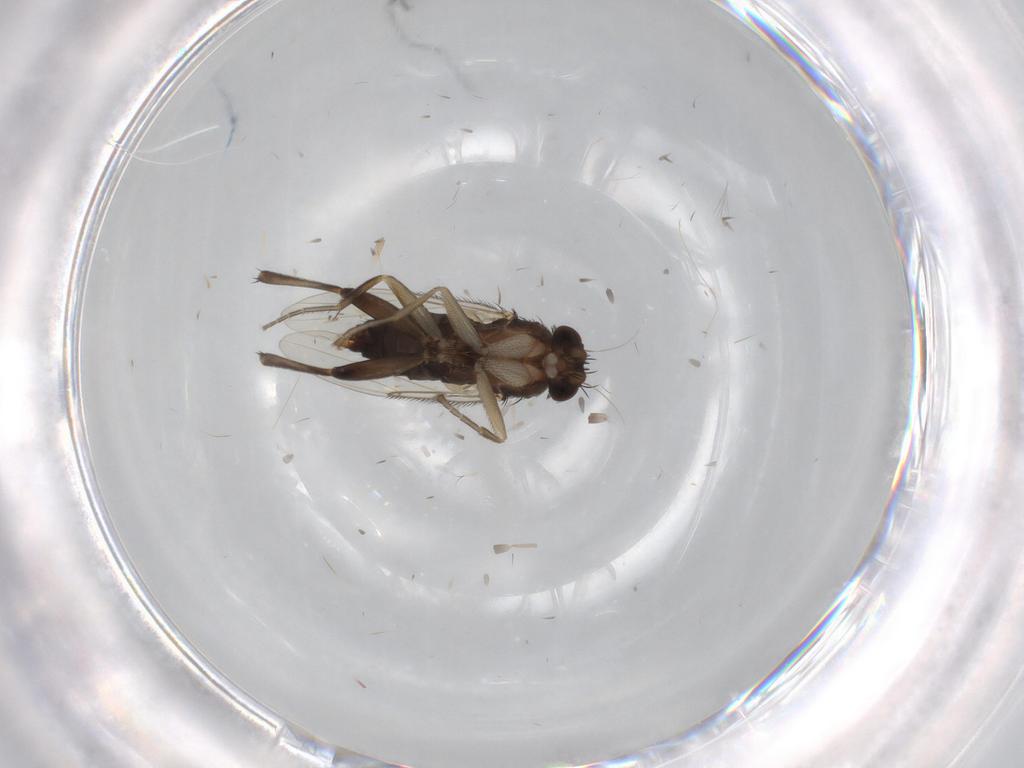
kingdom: Animalia
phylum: Arthropoda
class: Insecta
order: Diptera
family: Phoridae
